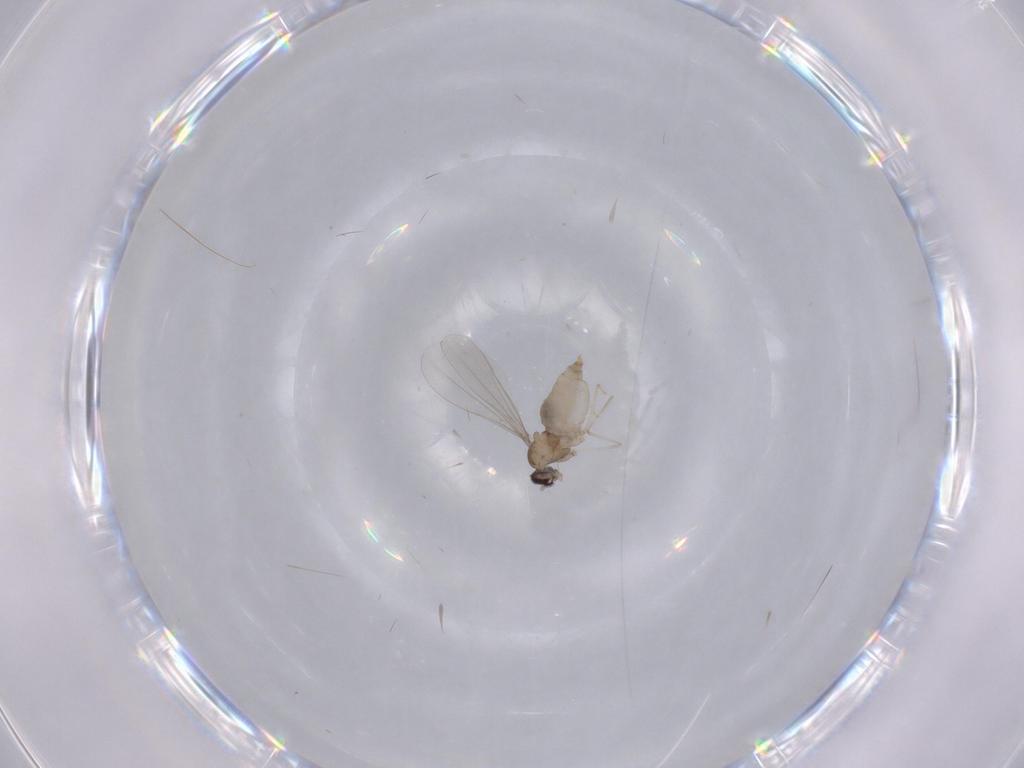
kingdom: Animalia
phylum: Arthropoda
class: Insecta
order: Diptera
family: Cecidomyiidae
